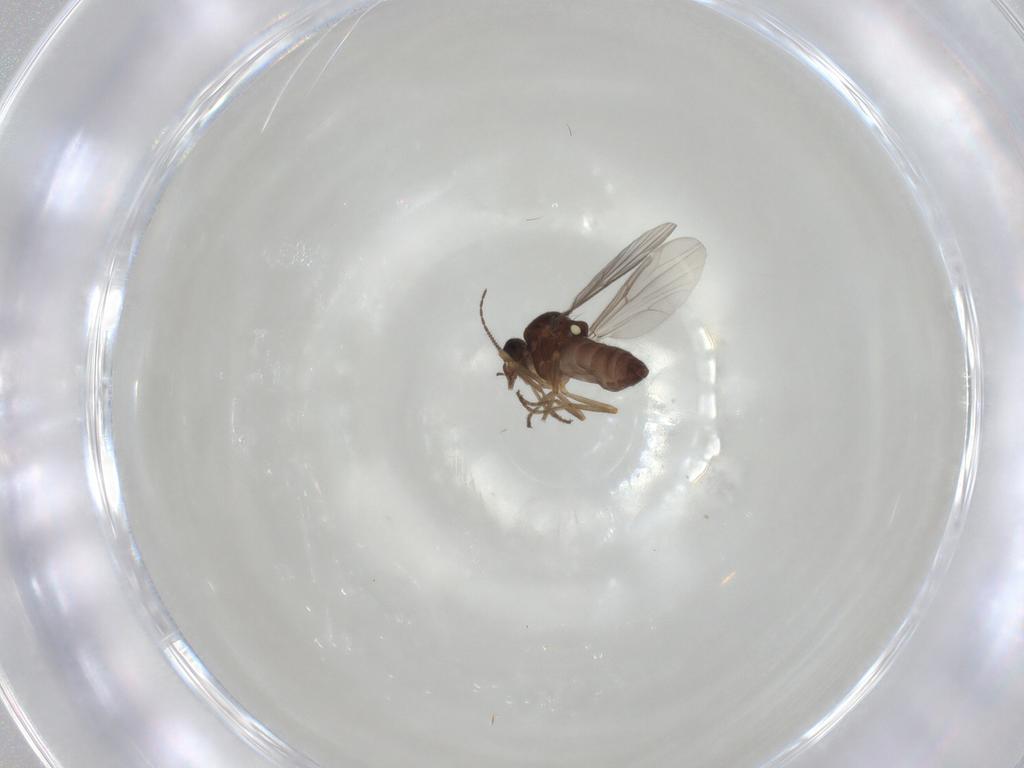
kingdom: Animalia
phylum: Arthropoda
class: Insecta
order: Diptera
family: Ceratopogonidae
